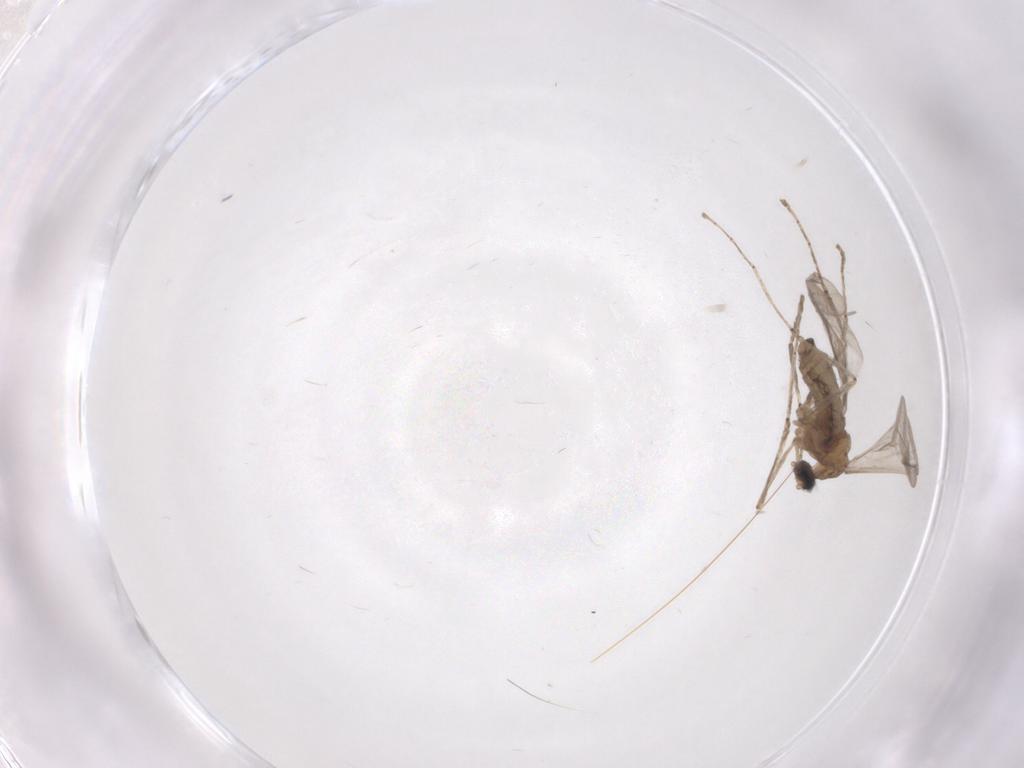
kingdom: Animalia
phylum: Arthropoda
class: Insecta
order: Diptera
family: Cecidomyiidae
